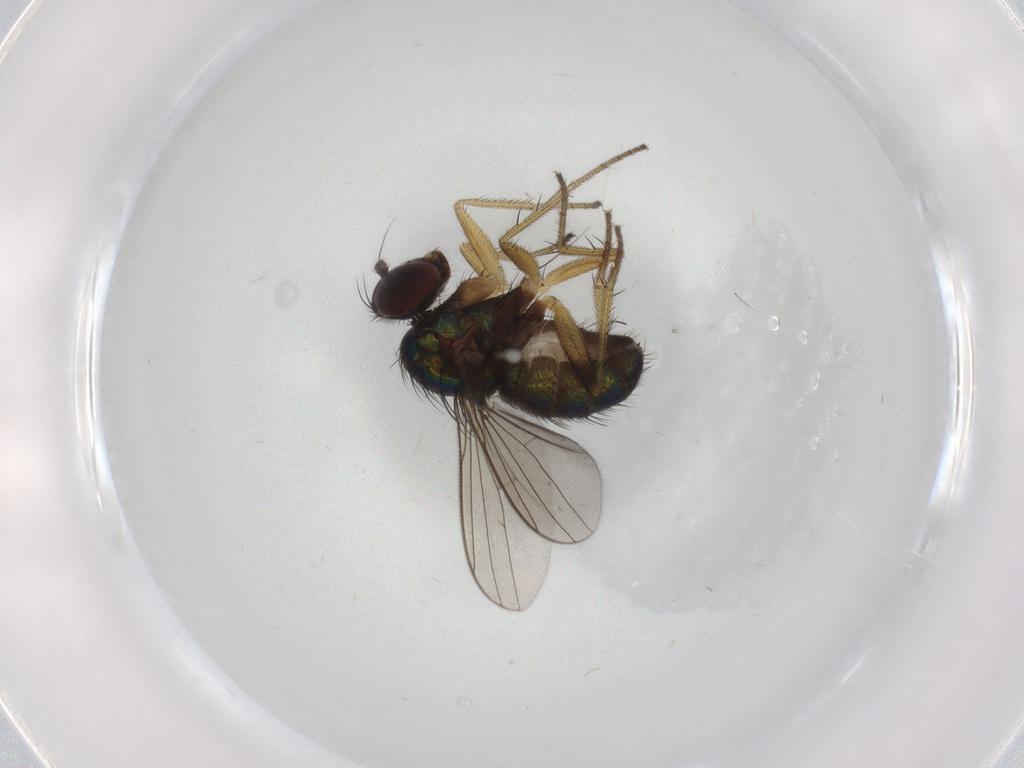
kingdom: Animalia
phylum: Arthropoda
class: Insecta
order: Diptera
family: Dolichopodidae
